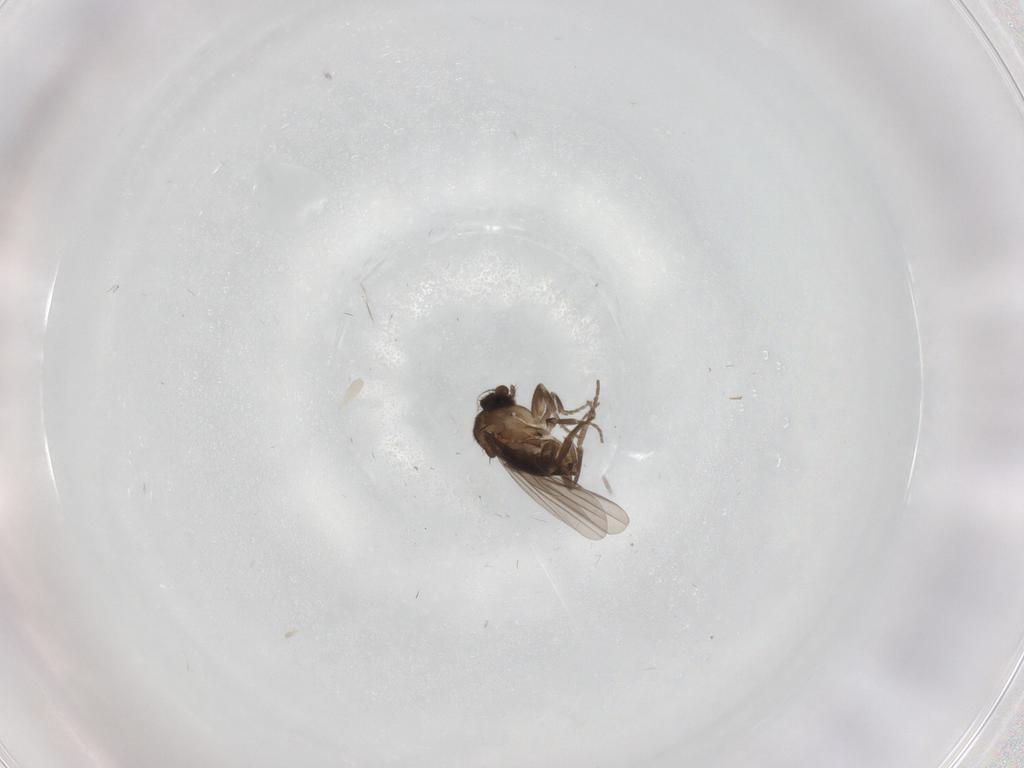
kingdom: Animalia
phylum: Arthropoda
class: Insecta
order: Diptera
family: Phoridae
